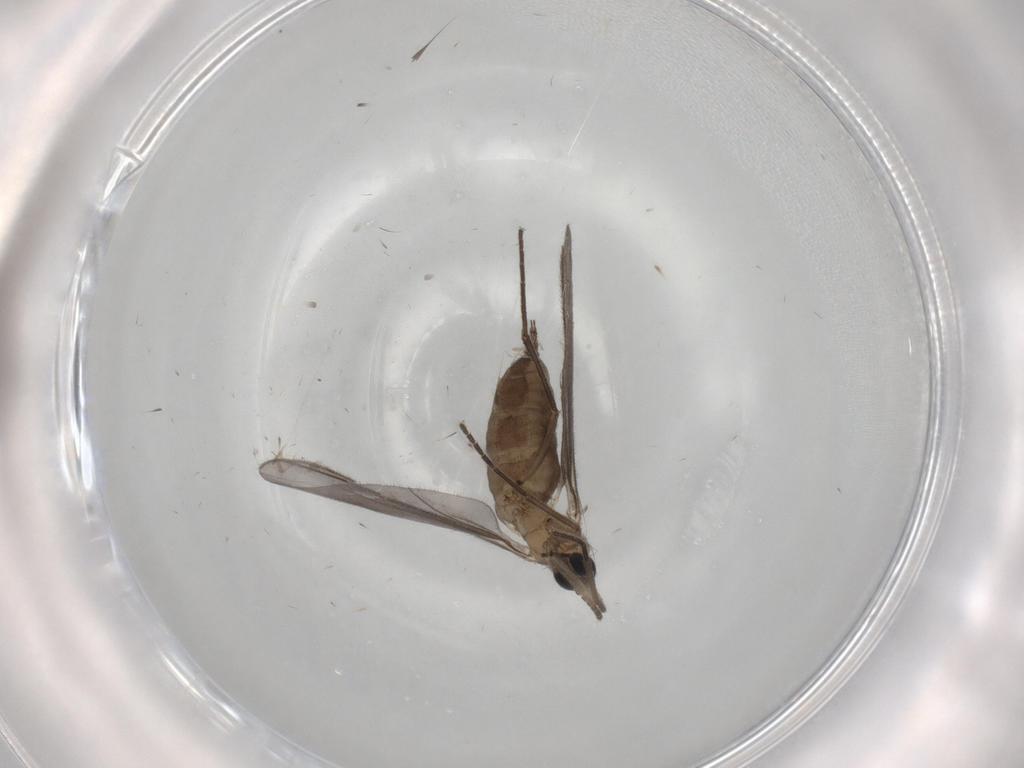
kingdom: Animalia
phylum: Arthropoda
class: Insecta
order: Diptera
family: Sciaridae
